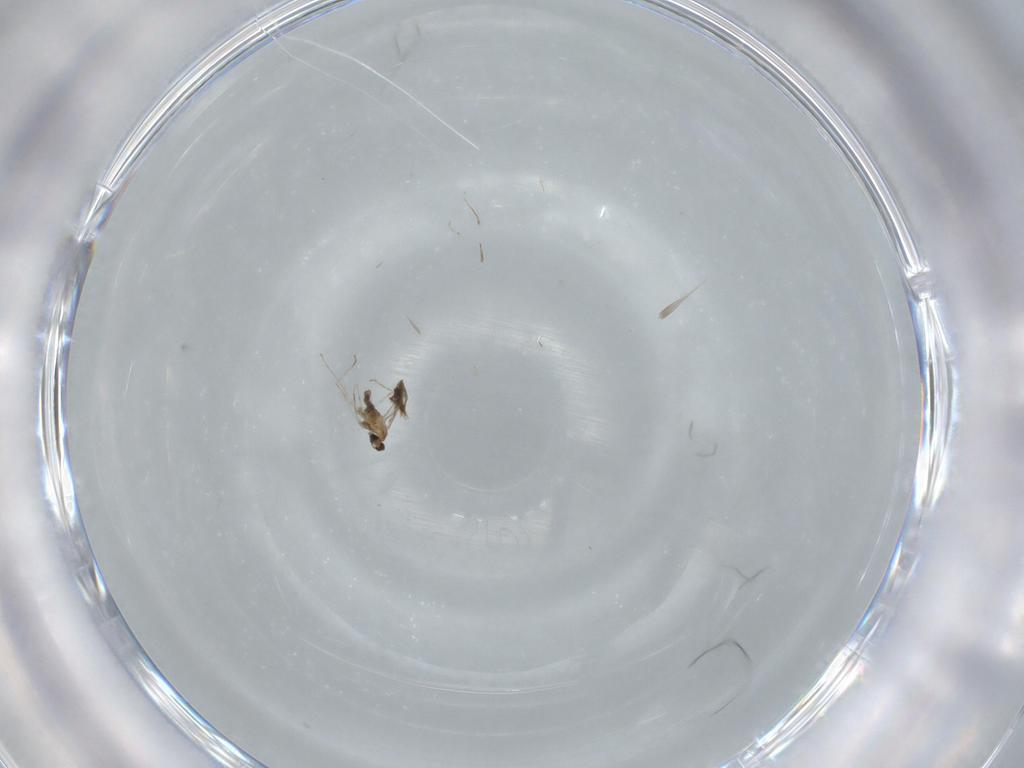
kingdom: Animalia
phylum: Arthropoda
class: Insecta
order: Diptera
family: Cecidomyiidae
